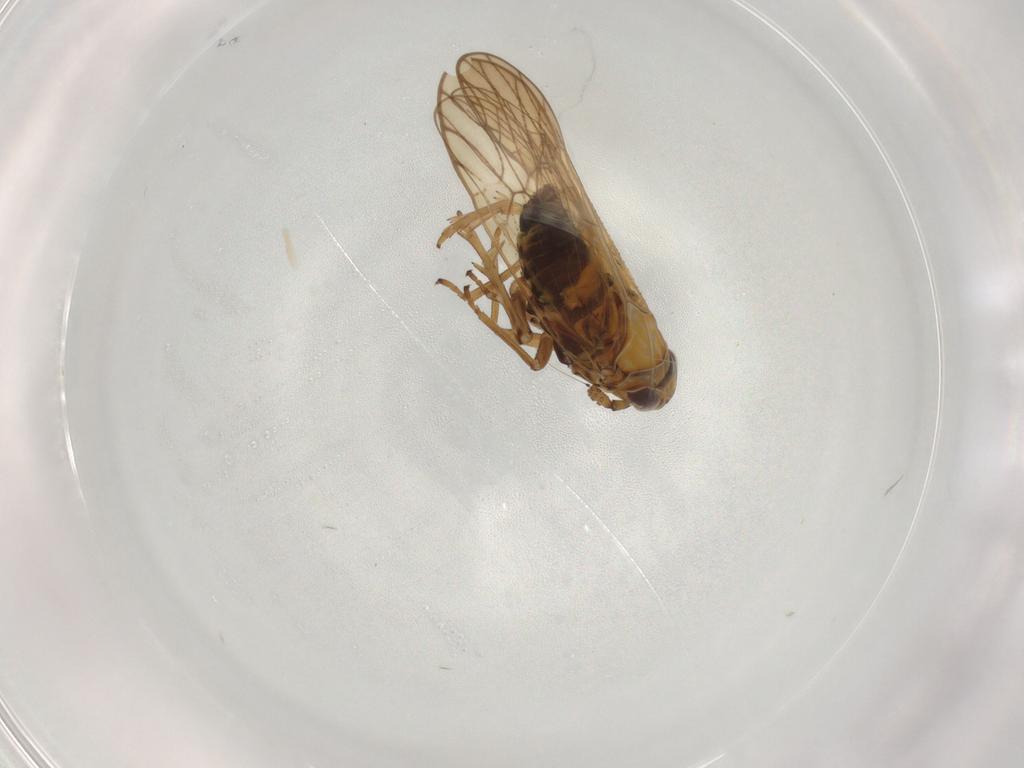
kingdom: Animalia
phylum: Arthropoda
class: Insecta
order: Hemiptera
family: Delphacidae
